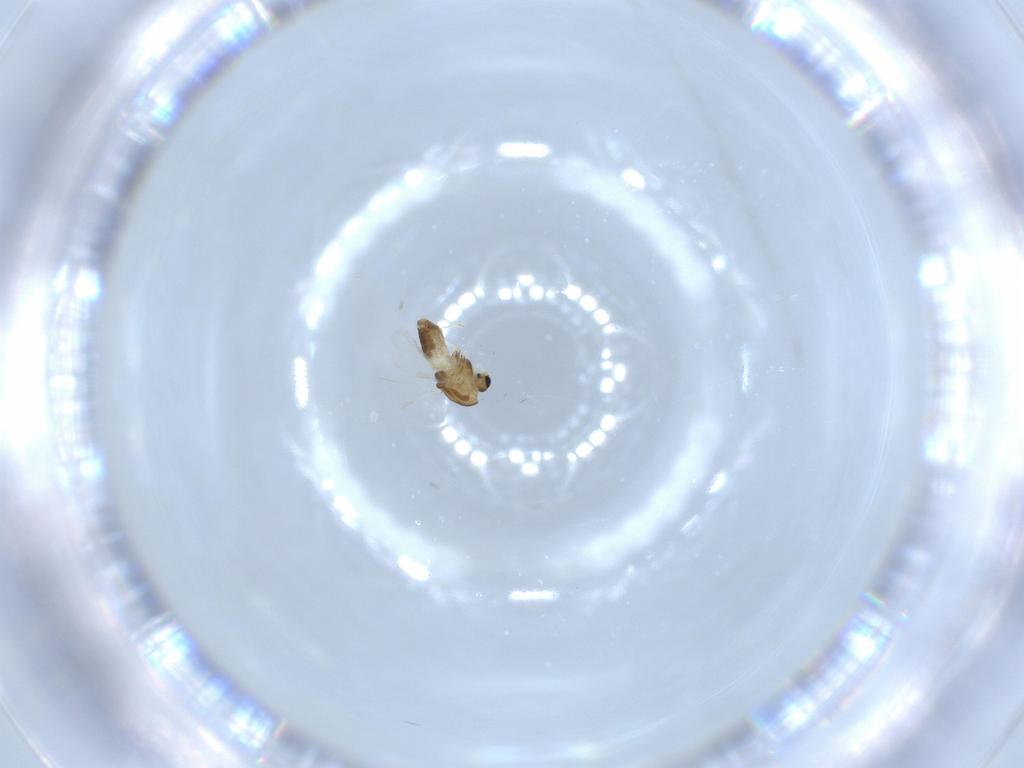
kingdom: Animalia
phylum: Arthropoda
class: Insecta
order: Diptera
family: Chironomidae
